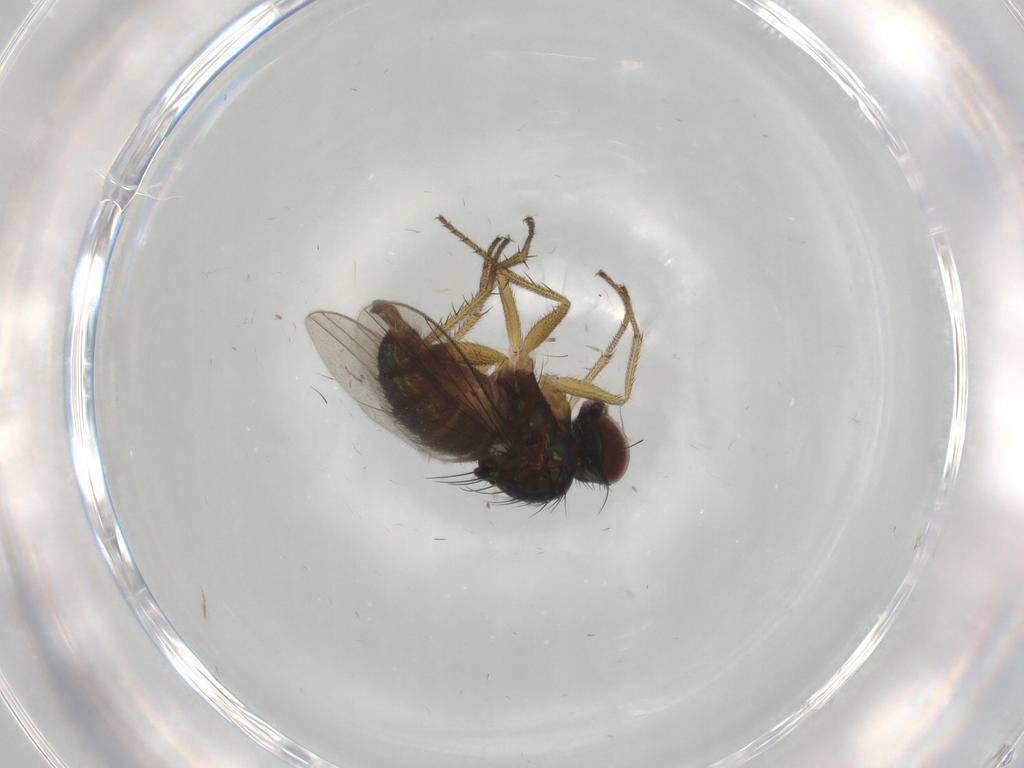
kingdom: Animalia
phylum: Arthropoda
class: Insecta
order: Diptera
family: Dolichopodidae
